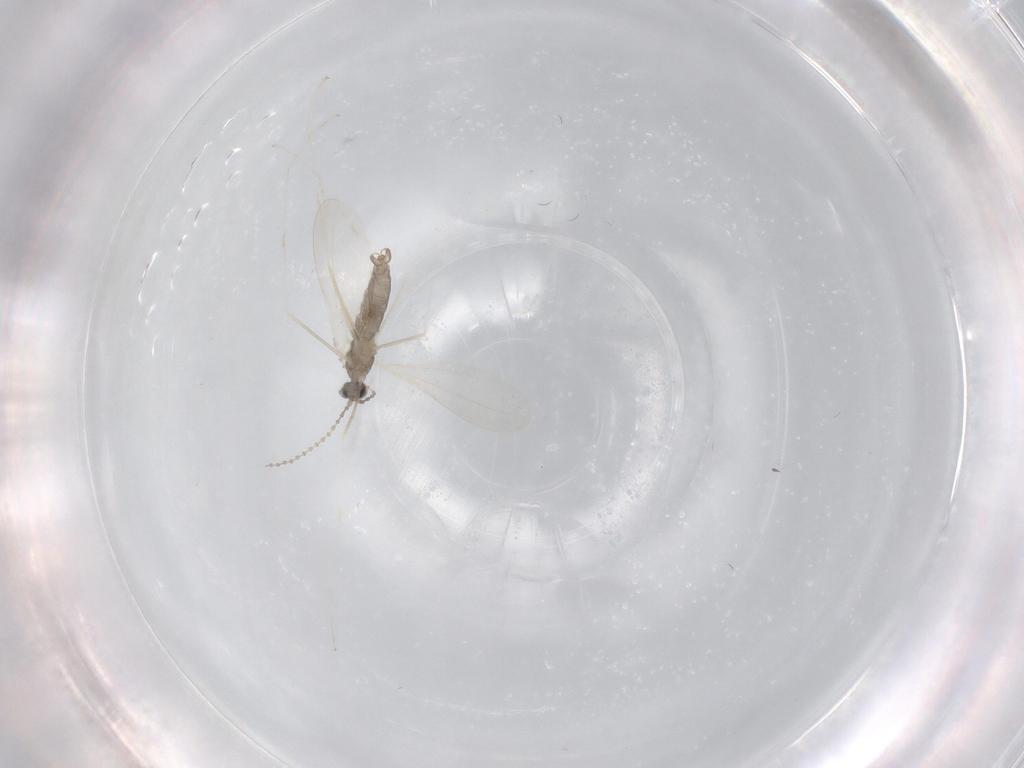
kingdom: Animalia
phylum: Arthropoda
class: Insecta
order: Diptera
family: Cecidomyiidae
